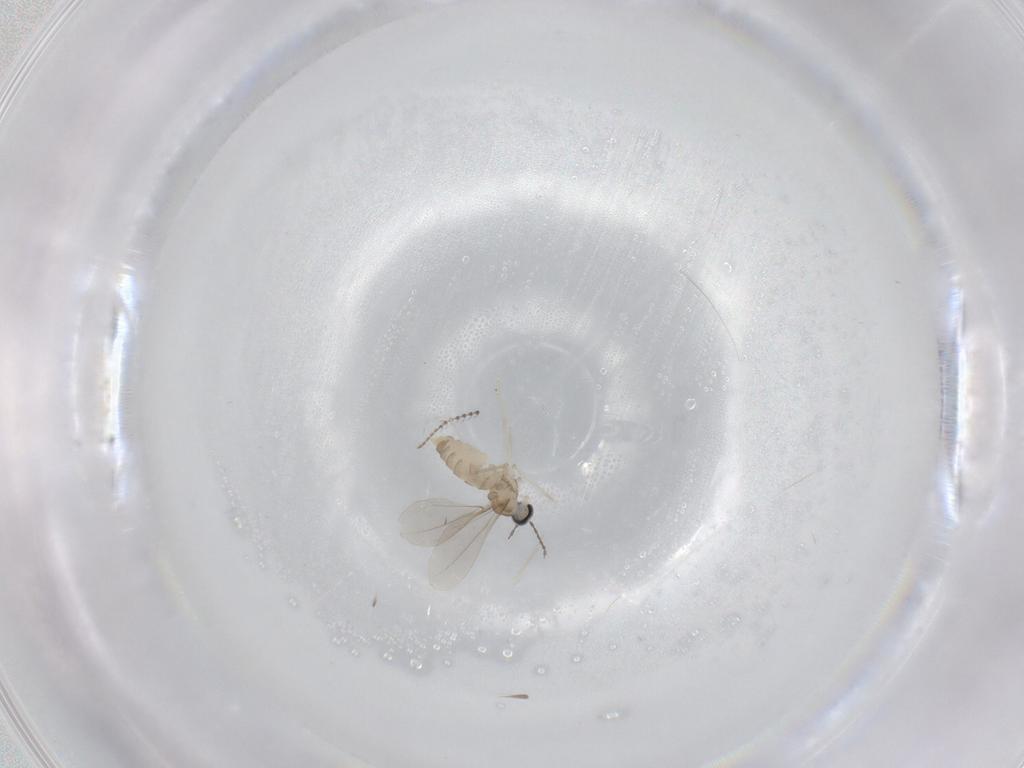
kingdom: Animalia
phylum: Arthropoda
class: Insecta
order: Diptera
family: Cecidomyiidae
